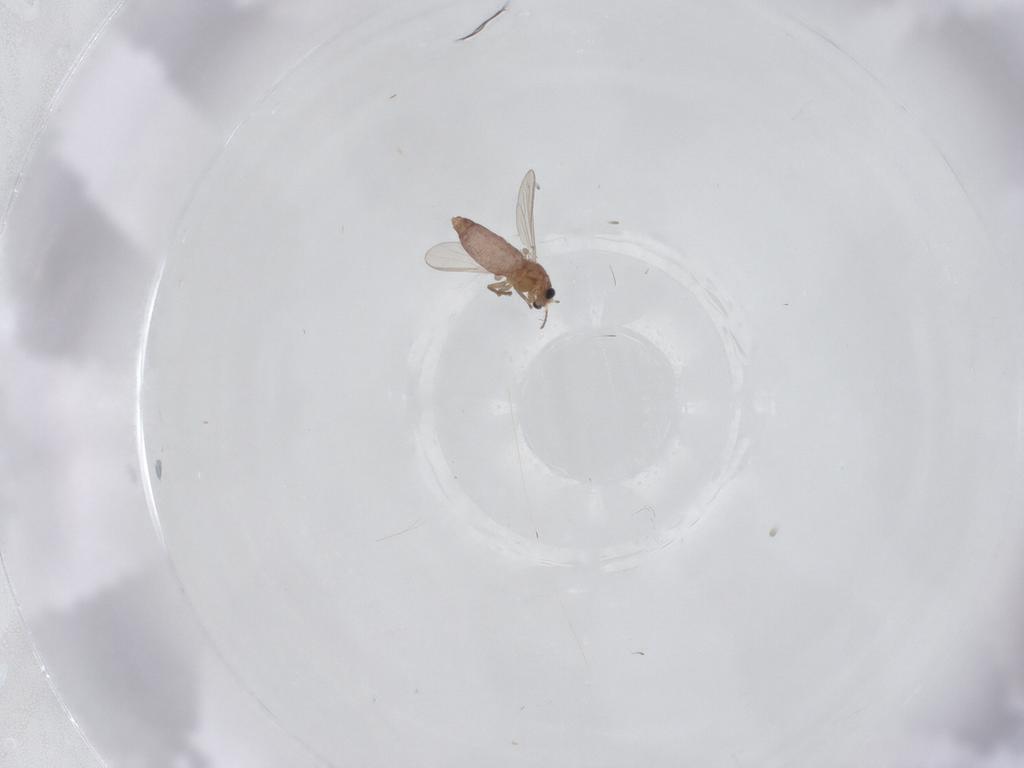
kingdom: Animalia
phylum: Arthropoda
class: Insecta
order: Diptera
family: Chironomidae
